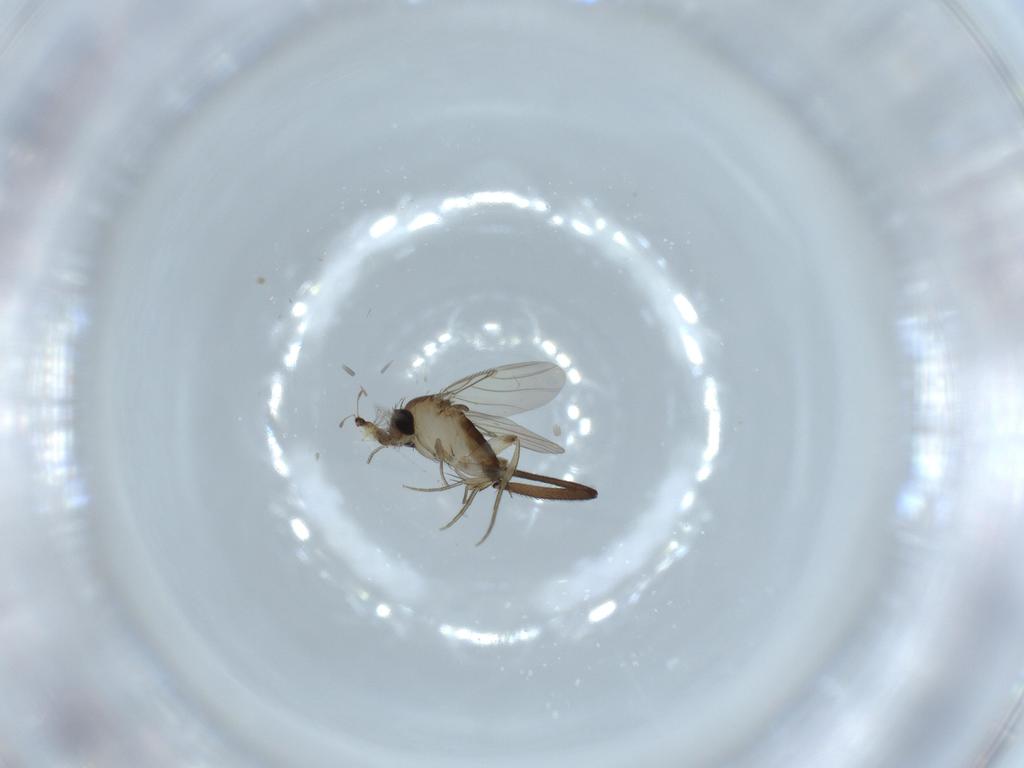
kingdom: Animalia
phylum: Arthropoda
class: Insecta
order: Diptera
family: Phoridae
